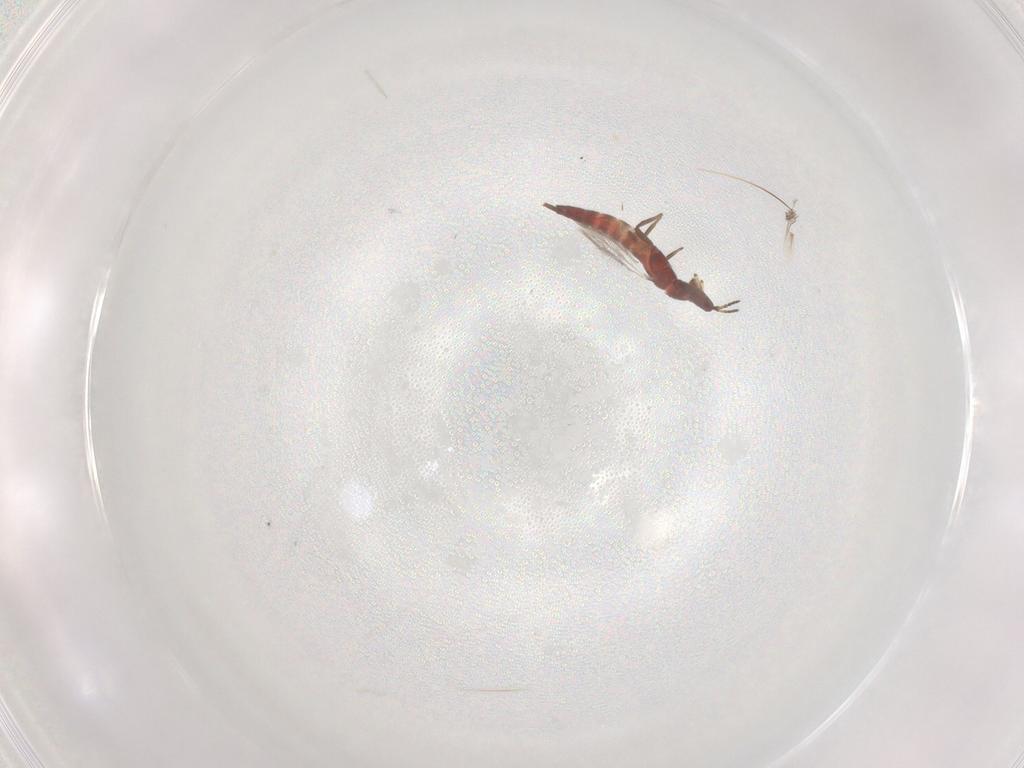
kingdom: Animalia
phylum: Arthropoda
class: Insecta
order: Thysanoptera
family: Phlaeothripidae
